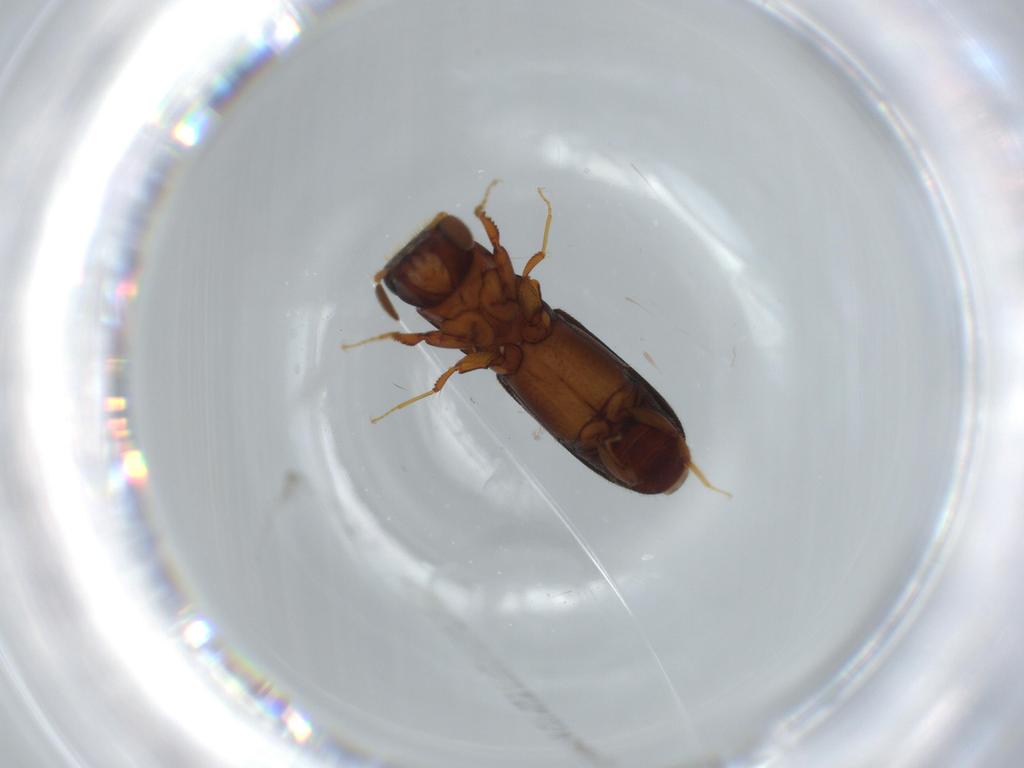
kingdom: Animalia
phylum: Arthropoda
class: Insecta
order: Coleoptera
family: Curculionidae
